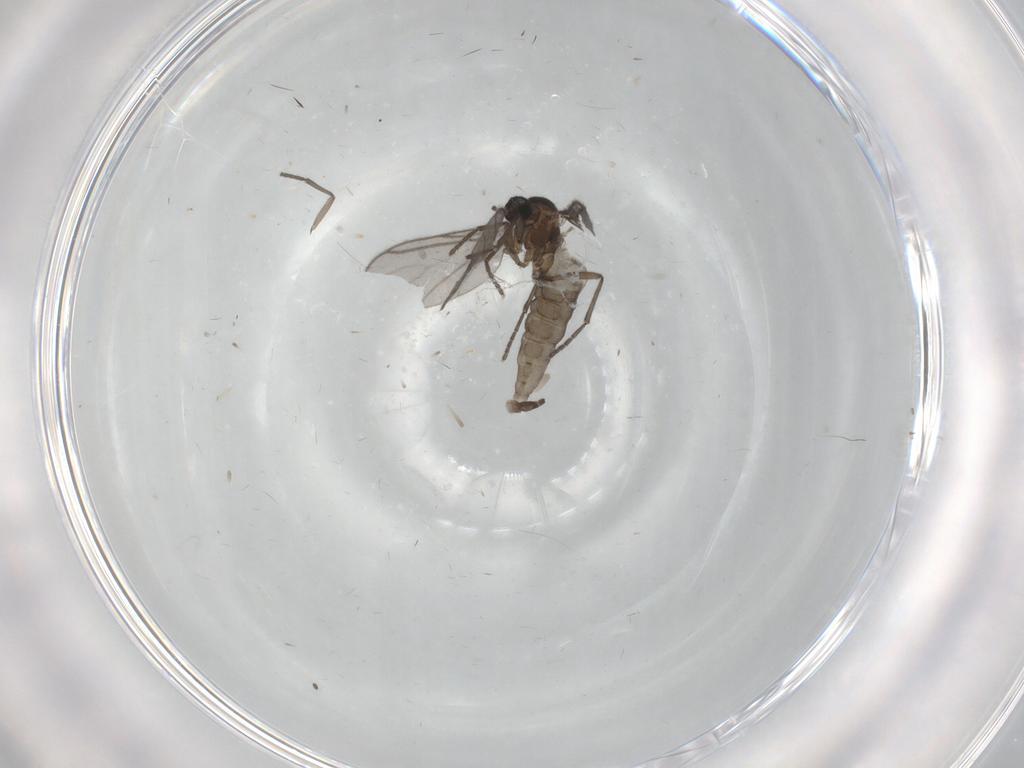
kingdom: Animalia
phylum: Arthropoda
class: Insecta
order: Diptera
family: Sciaridae
